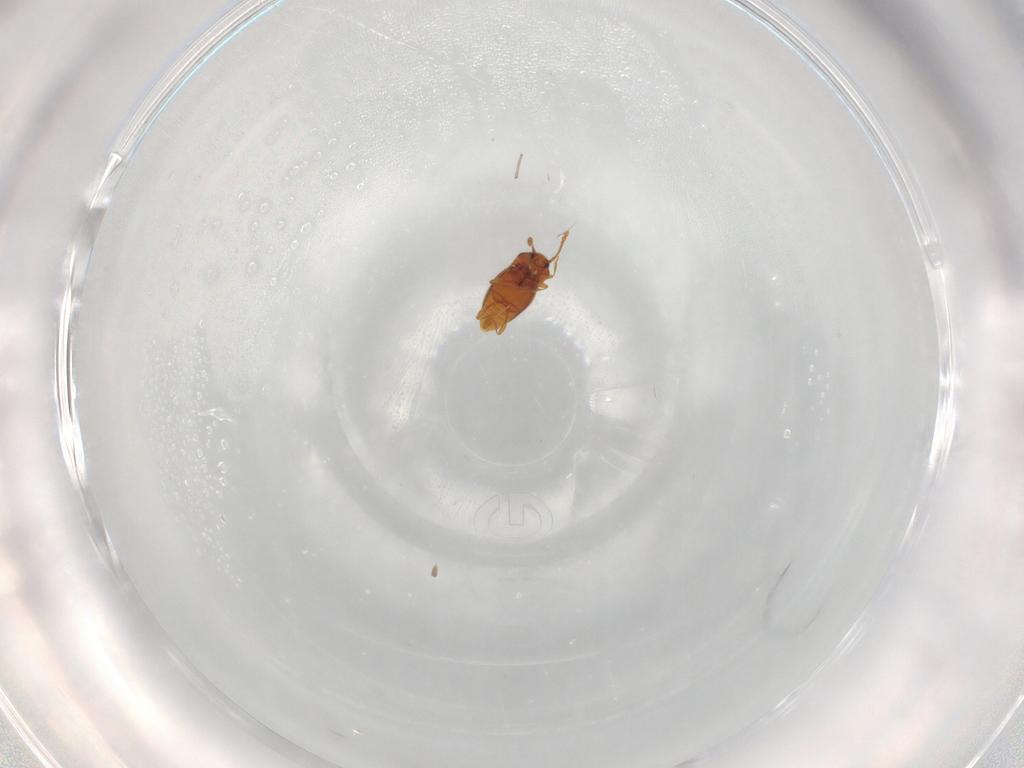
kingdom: Animalia
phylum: Arthropoda
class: Insecta
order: Coleoptera
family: Staphylinidae
